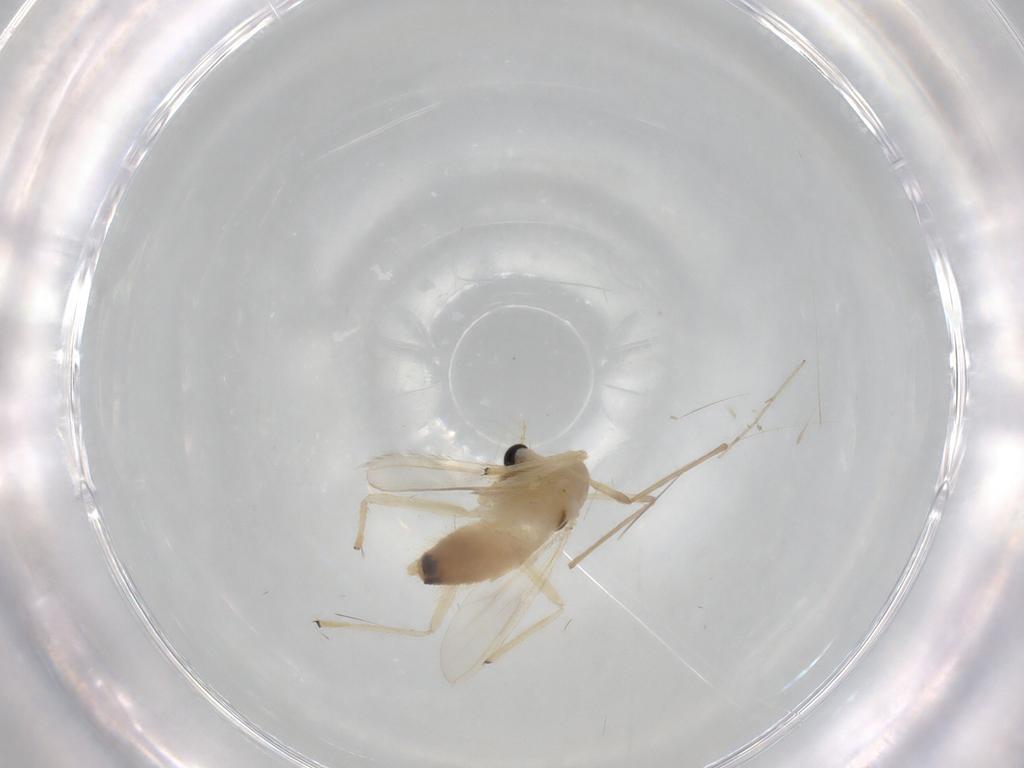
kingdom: Animalia
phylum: Arthropoda
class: Insecta
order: Diptera
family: Chironomidae
